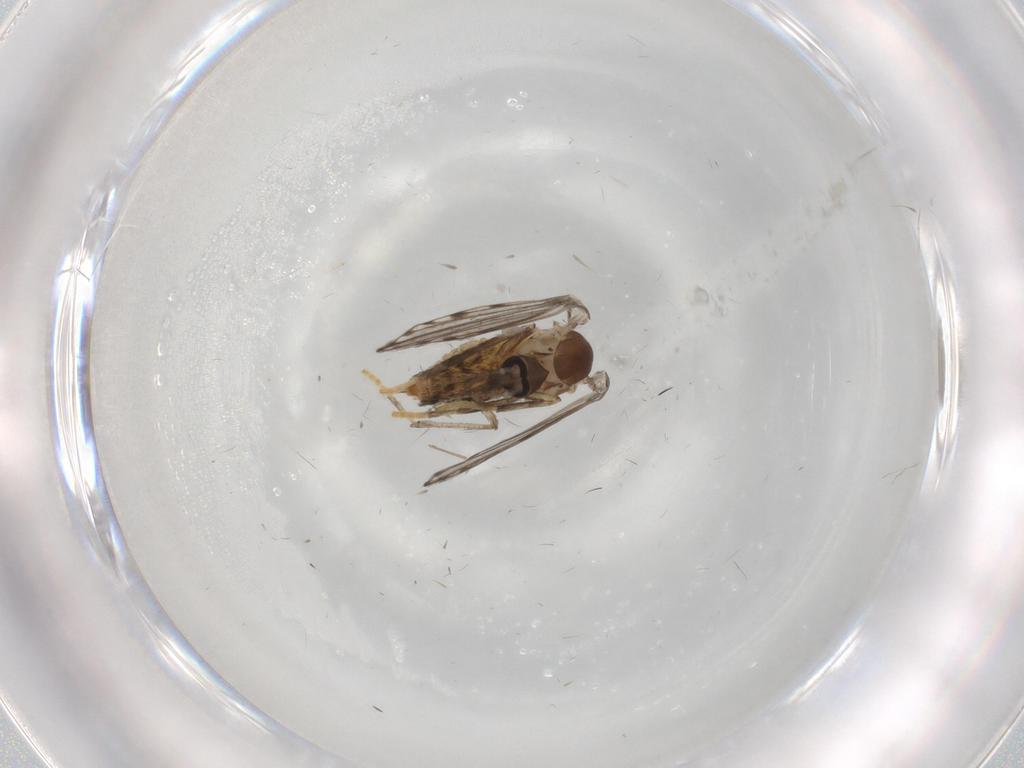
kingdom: Animalia
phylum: Arthropoda
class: Insecta
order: Diptera
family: Chironomidae
